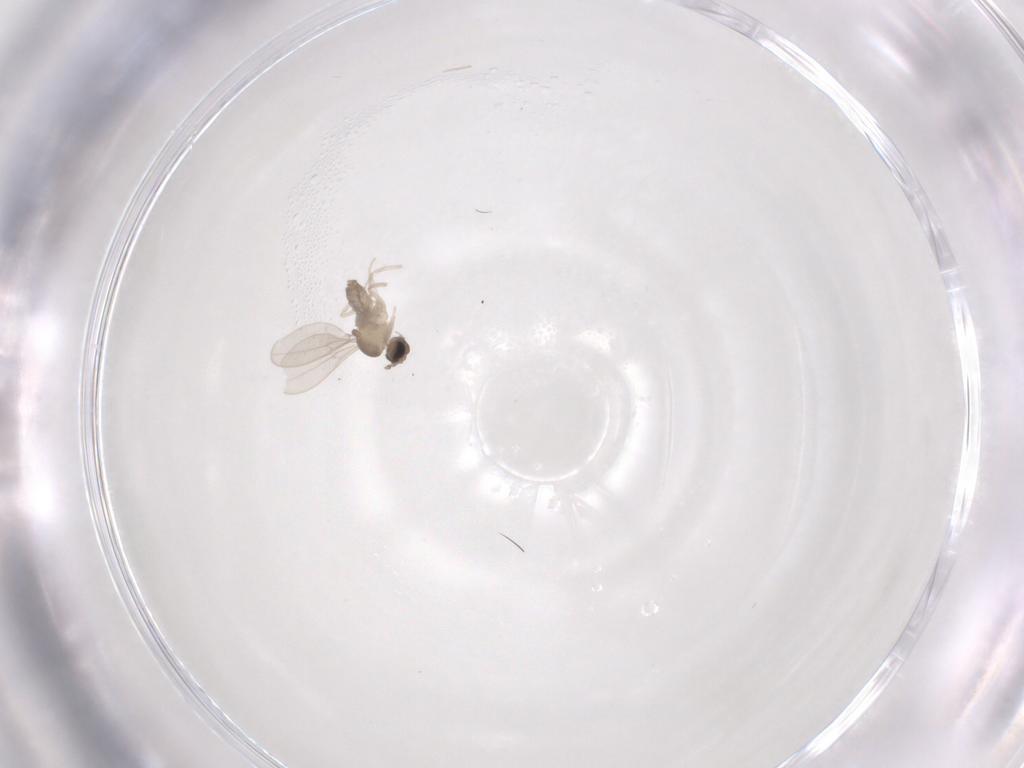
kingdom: Animalia
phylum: Arthropoda
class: Insecta
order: Diptera
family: Cecidomyiidae
